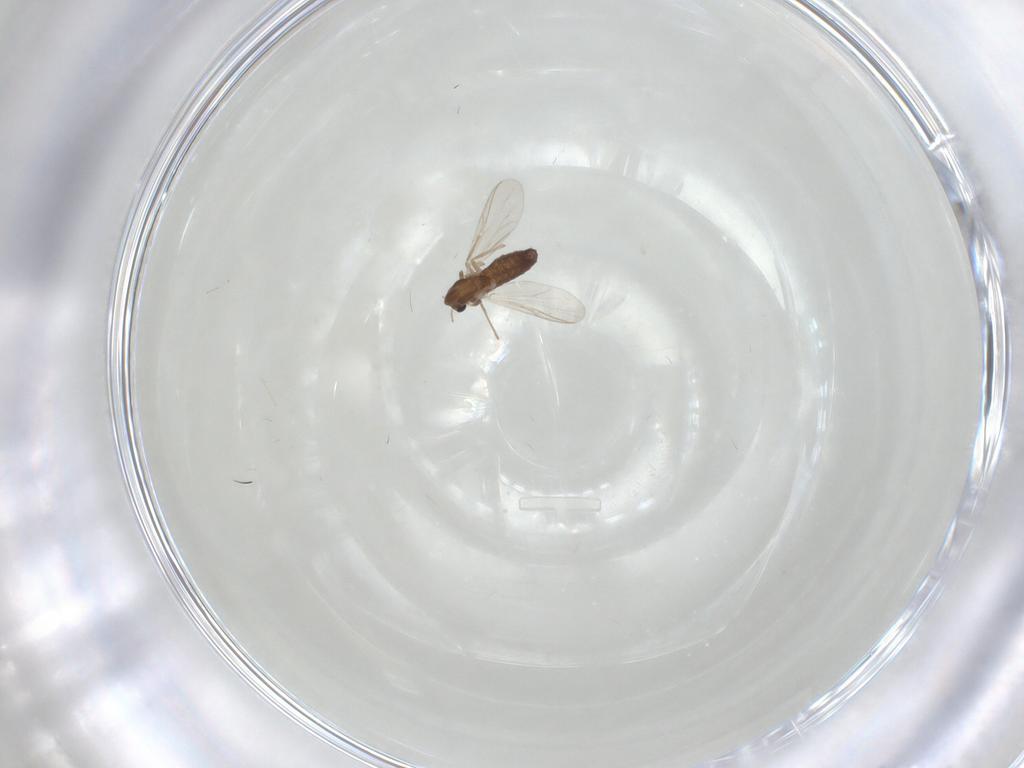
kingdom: Animalia
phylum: Arthropoda
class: Insecta
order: Diptera
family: Chironomidae
